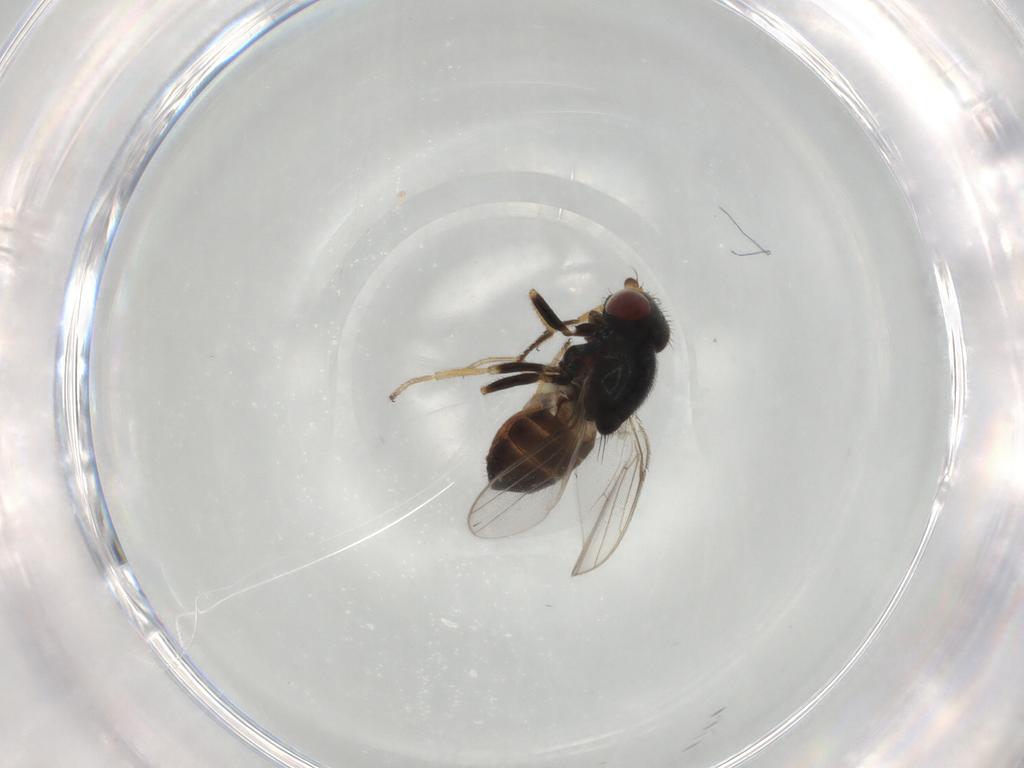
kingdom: Animalia
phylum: Arthropoda
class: Insecta
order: Diptera
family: Chloropidae
